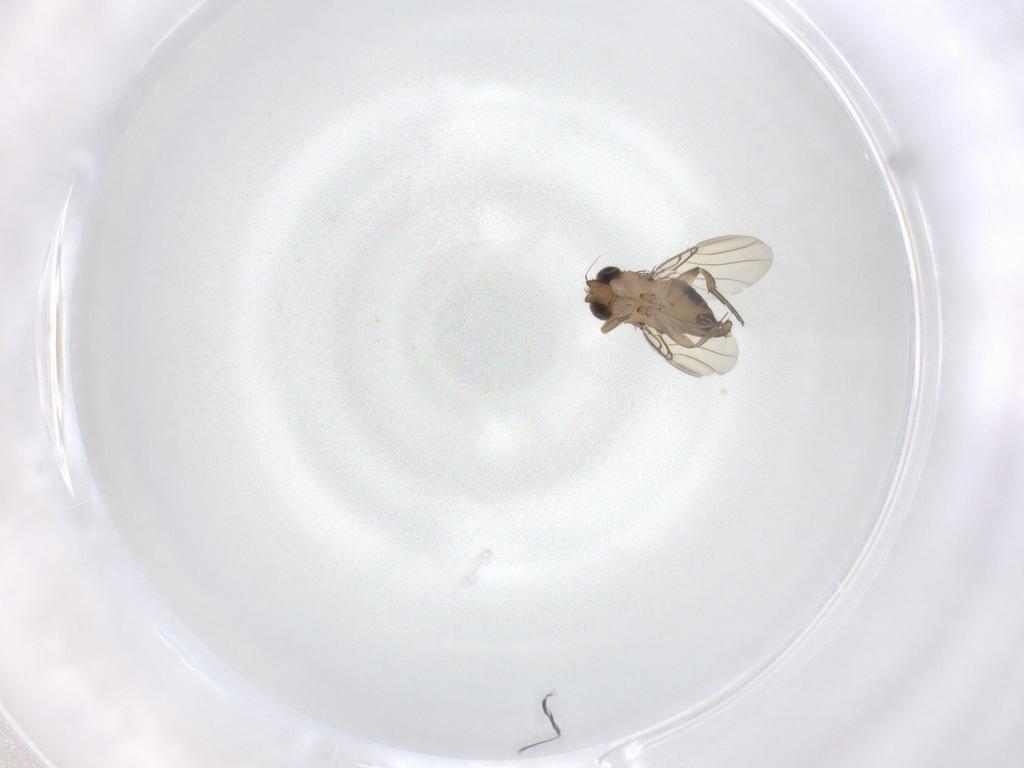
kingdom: Animalia
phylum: Arthropoda
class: Insecta
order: Diptera
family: Phoridae
